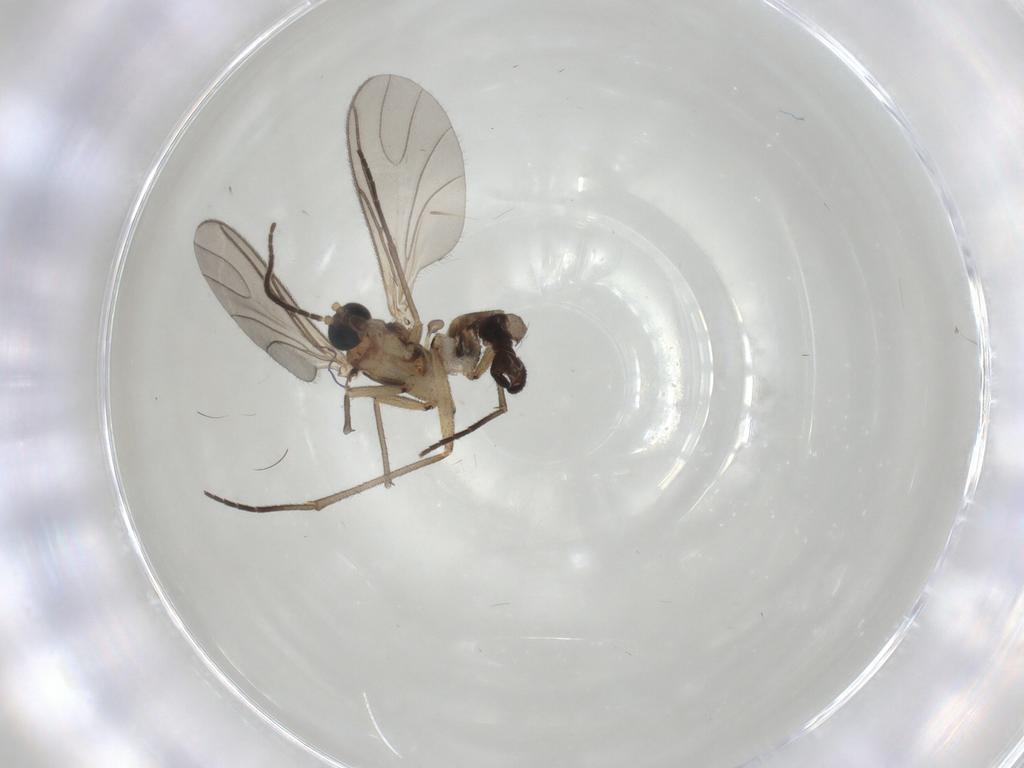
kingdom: Animalia
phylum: Arthropoda
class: Insecta
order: Diptera
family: Sciaridae
